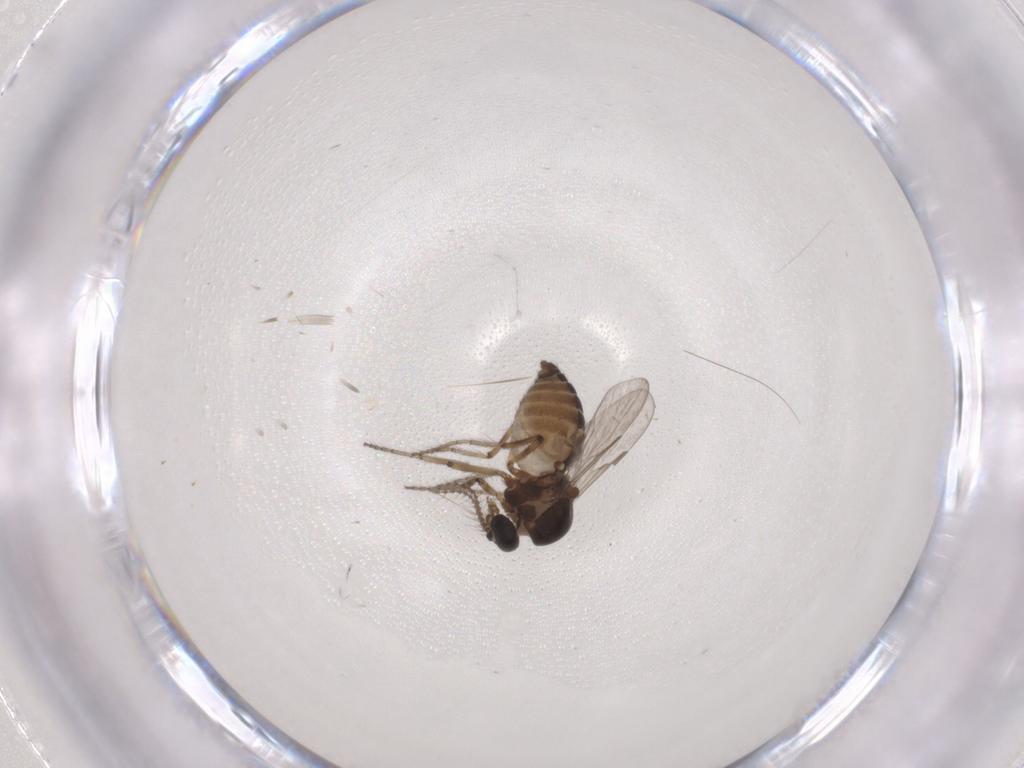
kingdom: Animalia
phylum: Arthropoda
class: Insecta
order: Diptera
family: Ceratopogonidae
